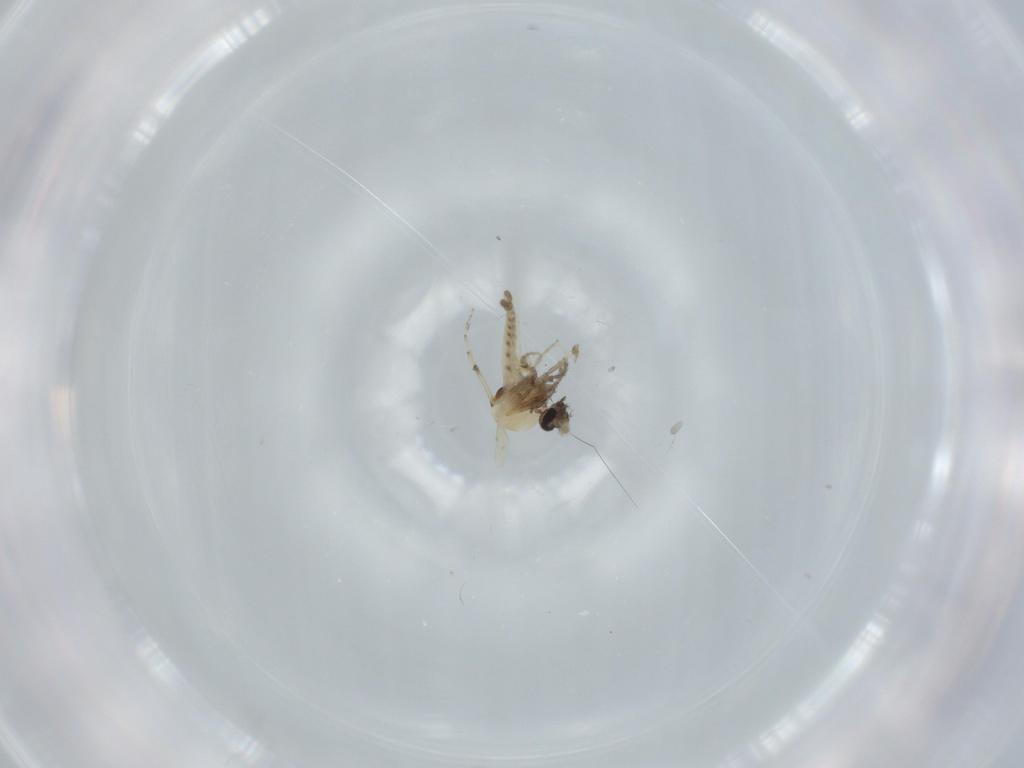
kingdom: Animalia
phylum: Arthropoda
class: Insecta
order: Diptera
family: Cecidomyiidae
